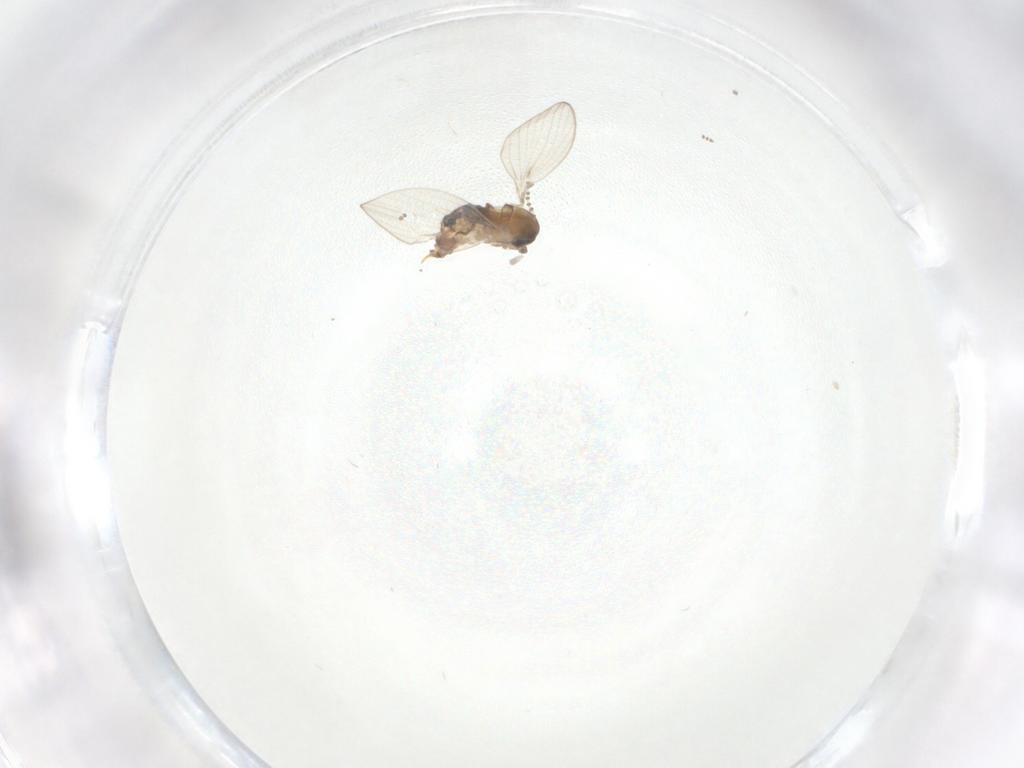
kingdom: Animalia
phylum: Arthropoda
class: Insecta
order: Diptera
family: Psychodidae
